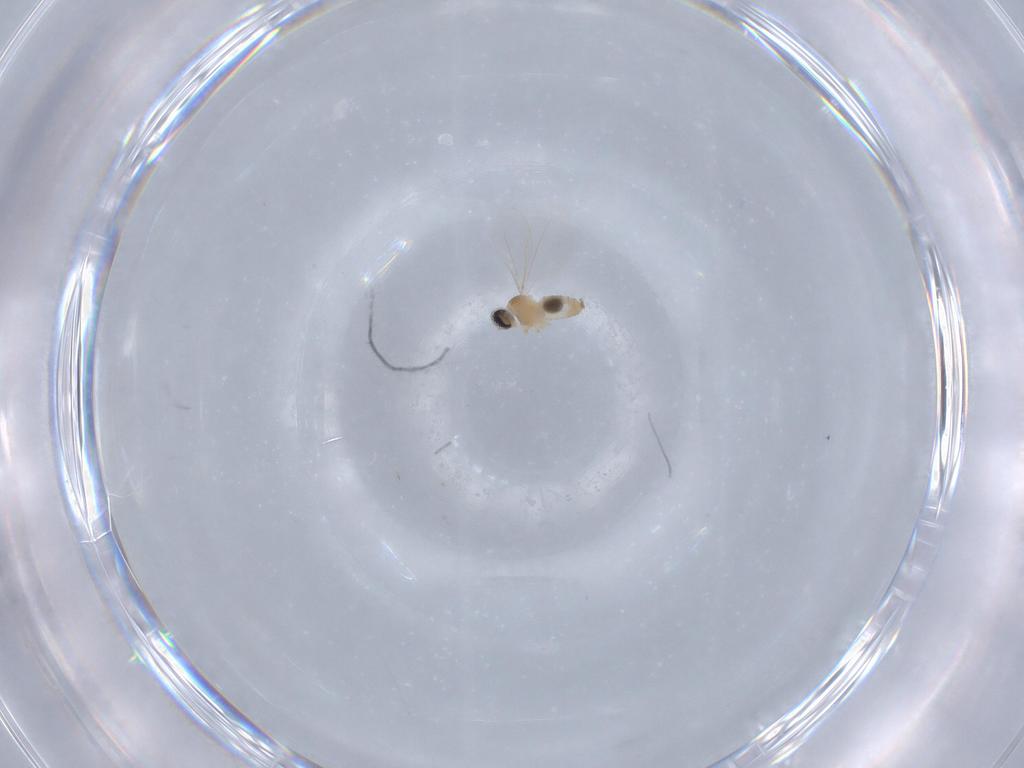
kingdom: Animalia
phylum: Arthropoda
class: Insecta
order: Diptera
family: Cecidomyiidae
